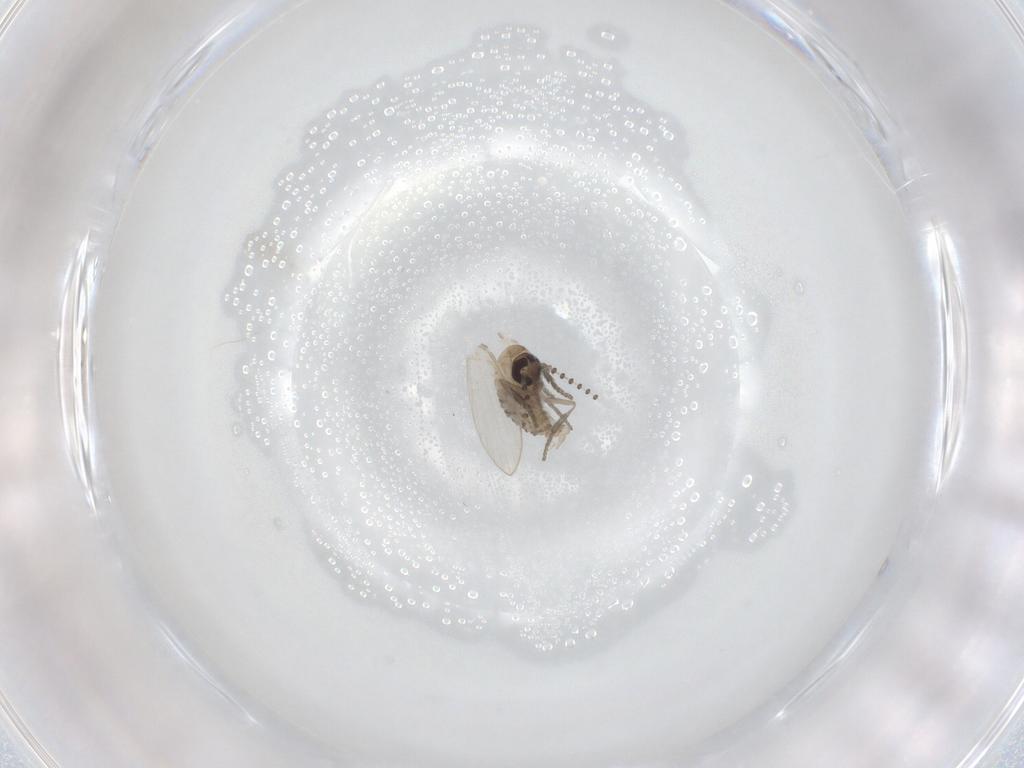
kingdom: Animalia
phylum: Arthropoda
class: Insecta
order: Diptera
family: Psychodidae
